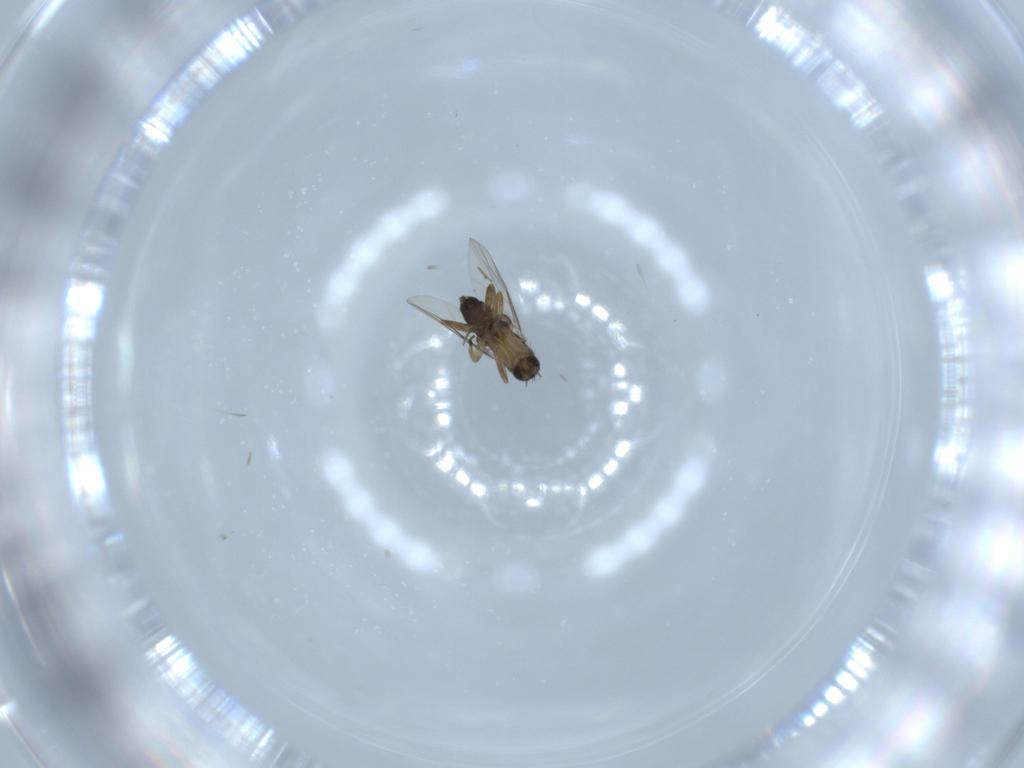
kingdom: Animalia
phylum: Arthropoda
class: Insecta
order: Diptera
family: Phoridae
